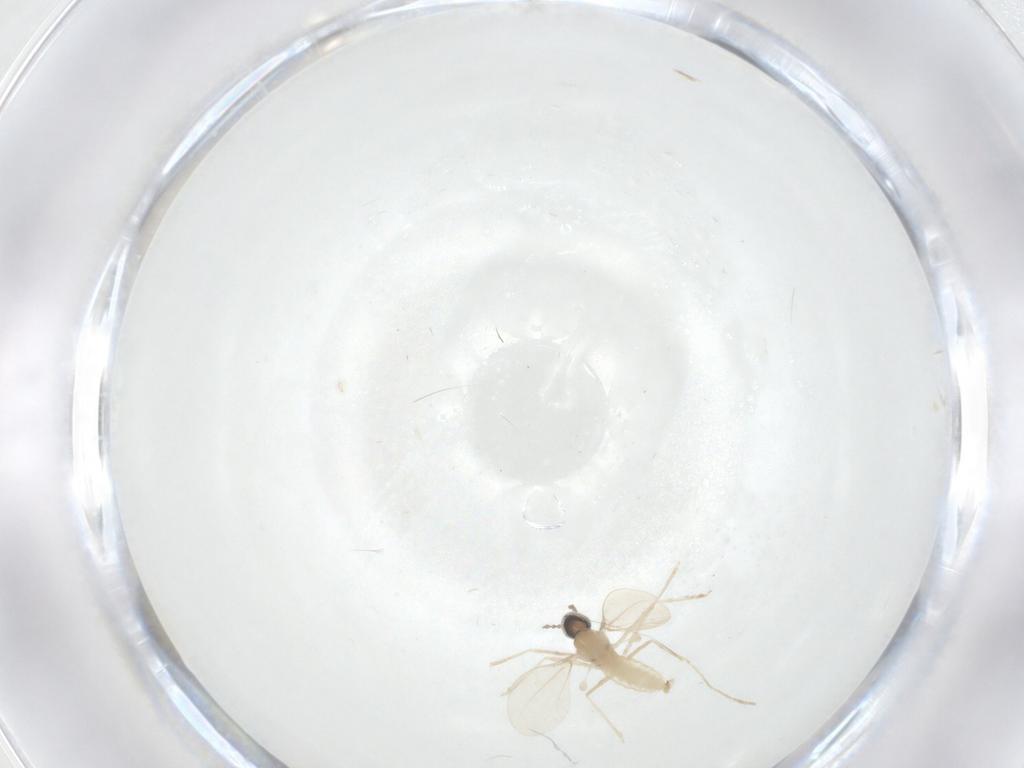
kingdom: Animalia
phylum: Arthropoda
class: Insecta
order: Diptera
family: Cecidomyiidae
